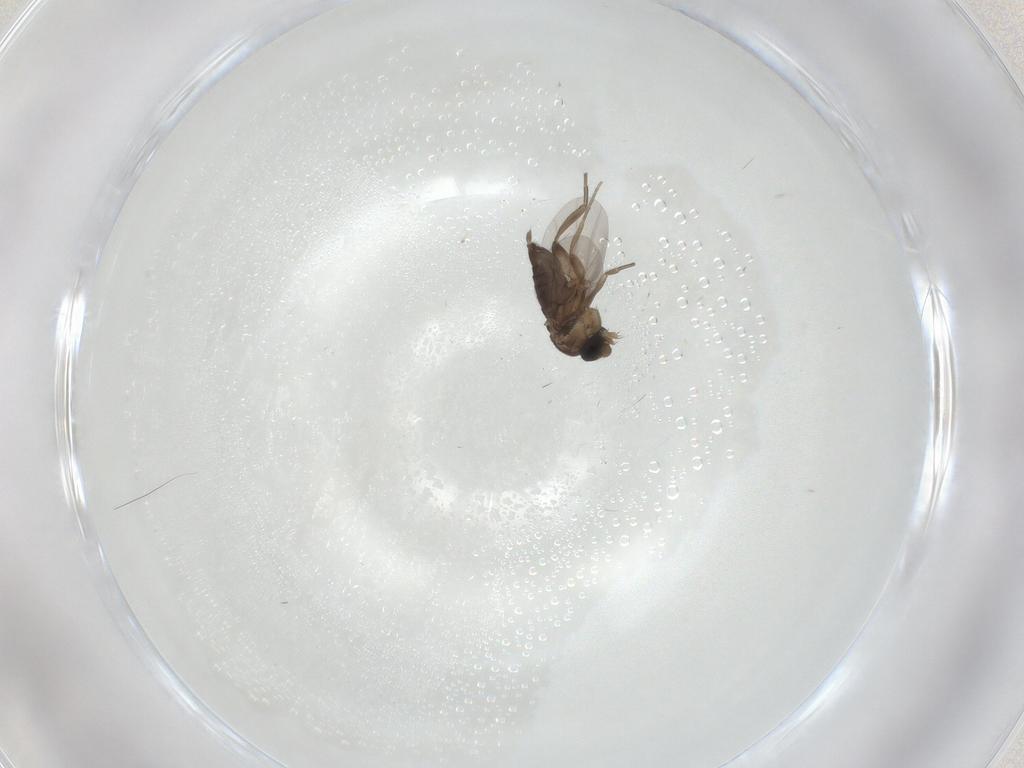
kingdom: Animalia
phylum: Arthropoda
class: Insecta
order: Diptera
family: Phoridae
